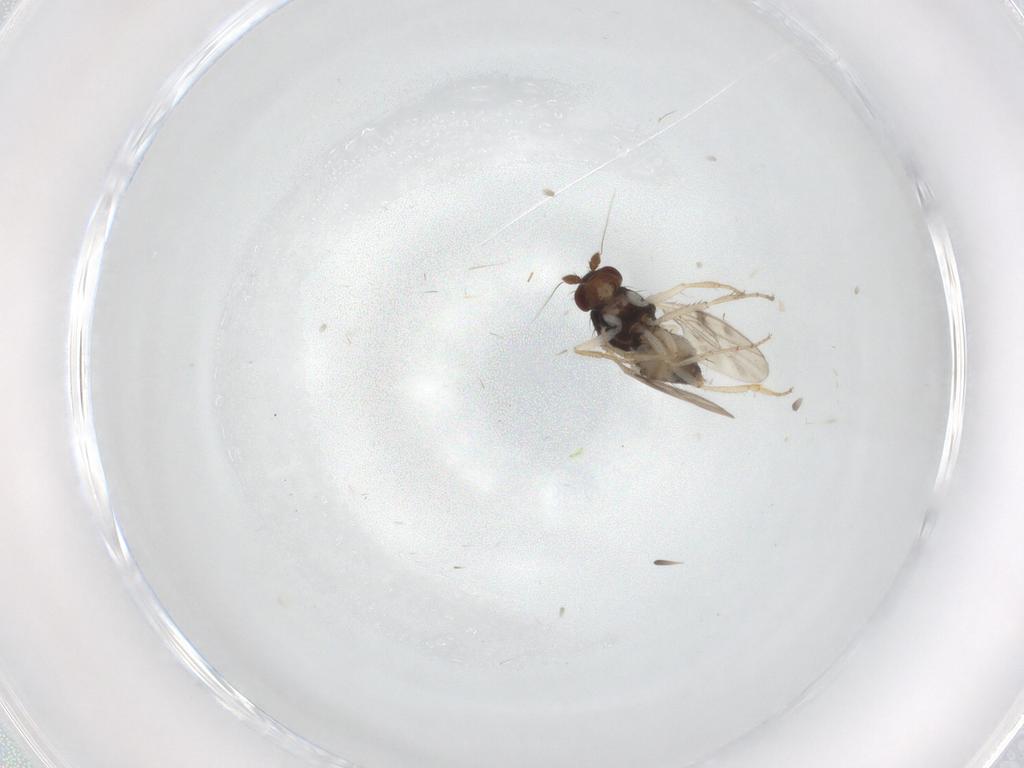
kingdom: Animalia
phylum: Arthropoda
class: Insecta
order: Diptera
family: Sphaeroceridae
